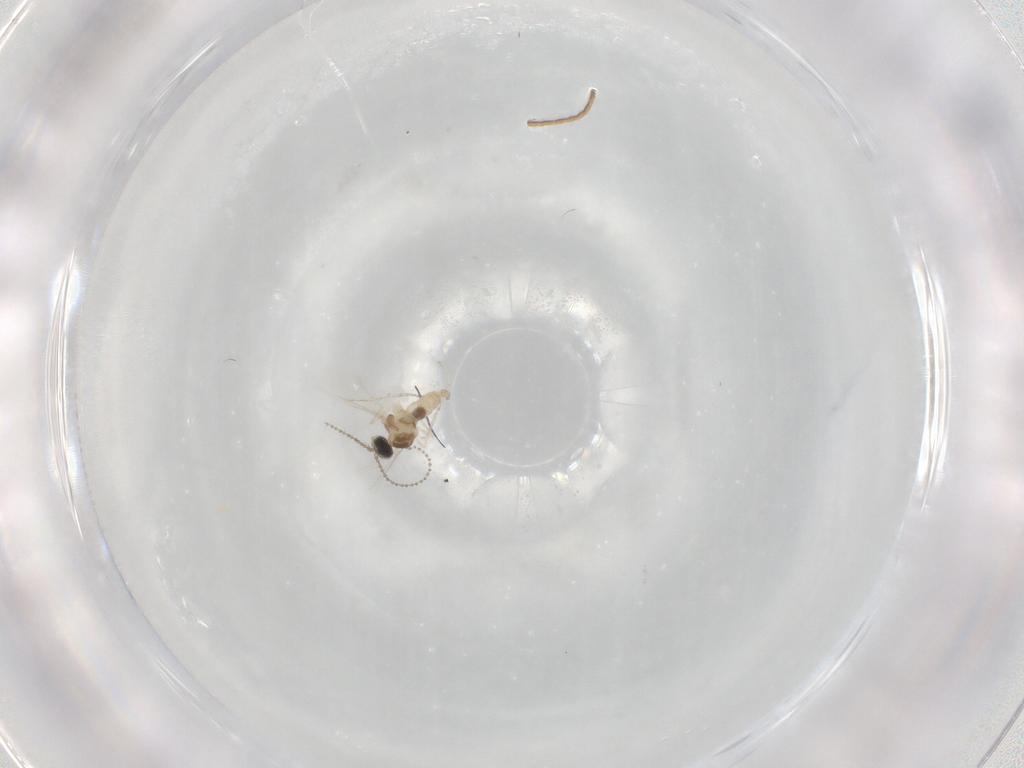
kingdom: Animalia
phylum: Arthropoda
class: Insecta
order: Diptera
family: Cecidomyiidae
